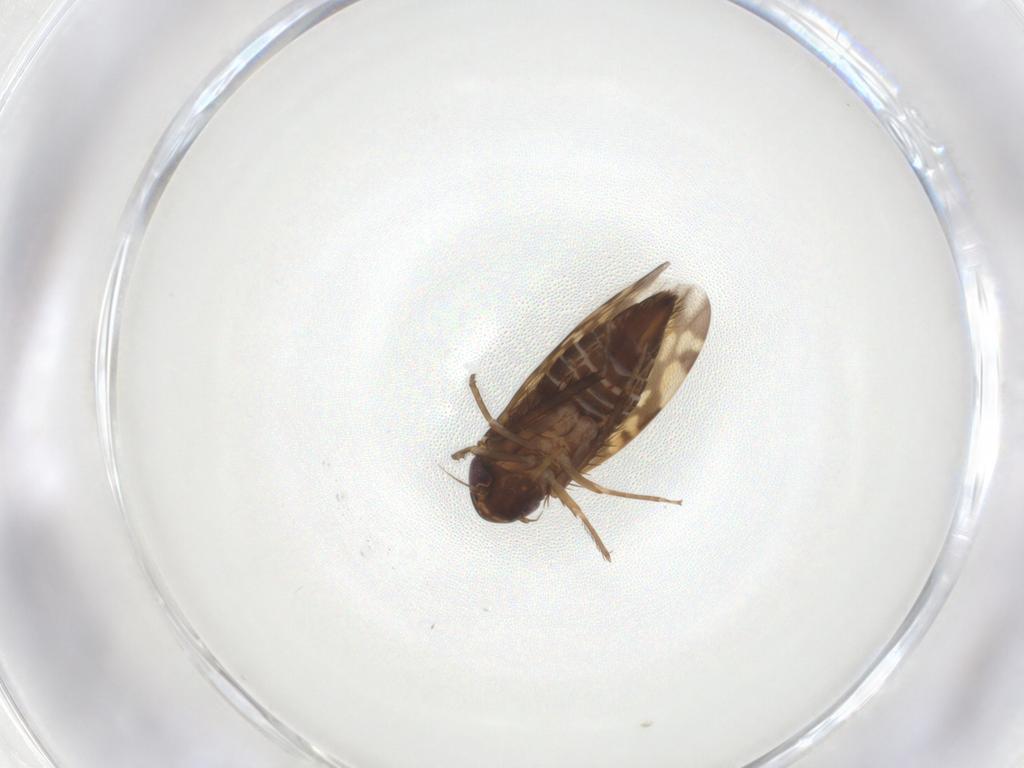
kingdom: Animalia
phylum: Arthropoda
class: Insecta
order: Hemiptera
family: Cicadellidae
